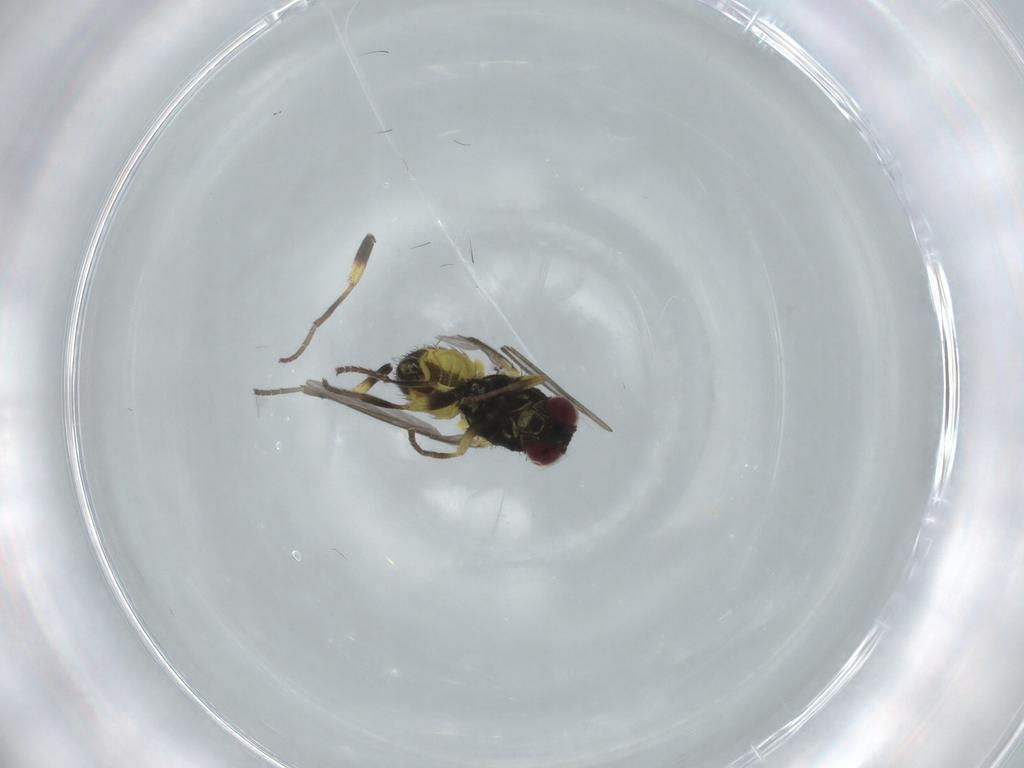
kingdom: Animalia
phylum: Arthropoda
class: Insecta
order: Diptera
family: Agromyzidae
